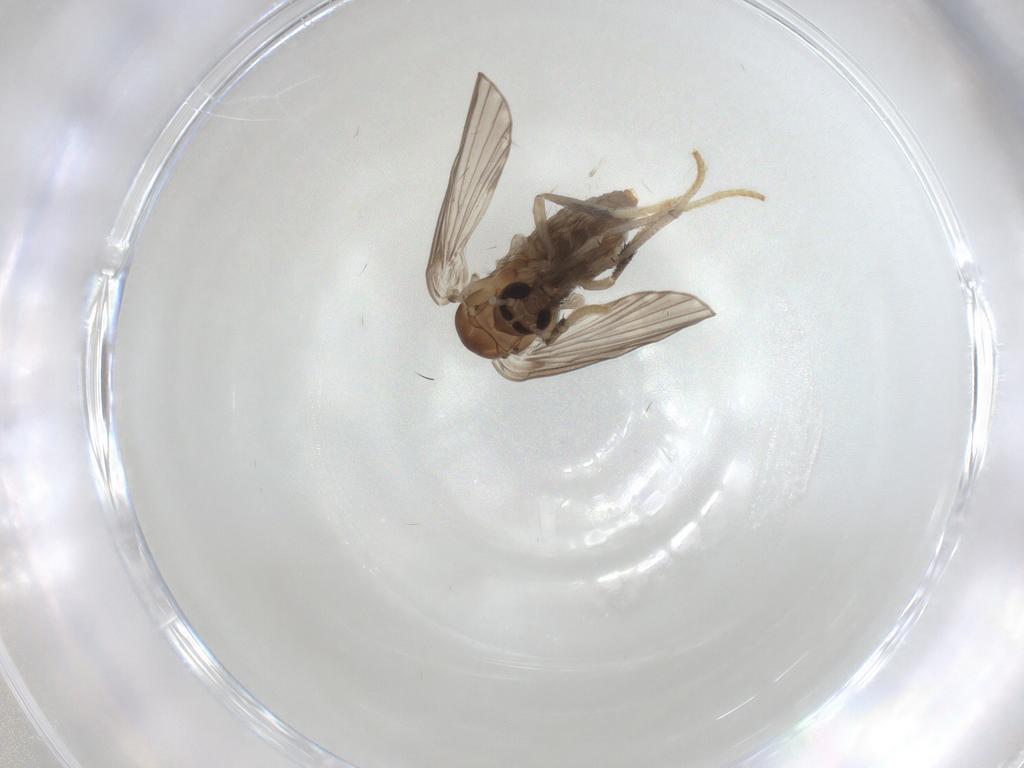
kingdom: Animalia
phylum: Arthropoda
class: Insecta
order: Diptera
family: Psychodidae
